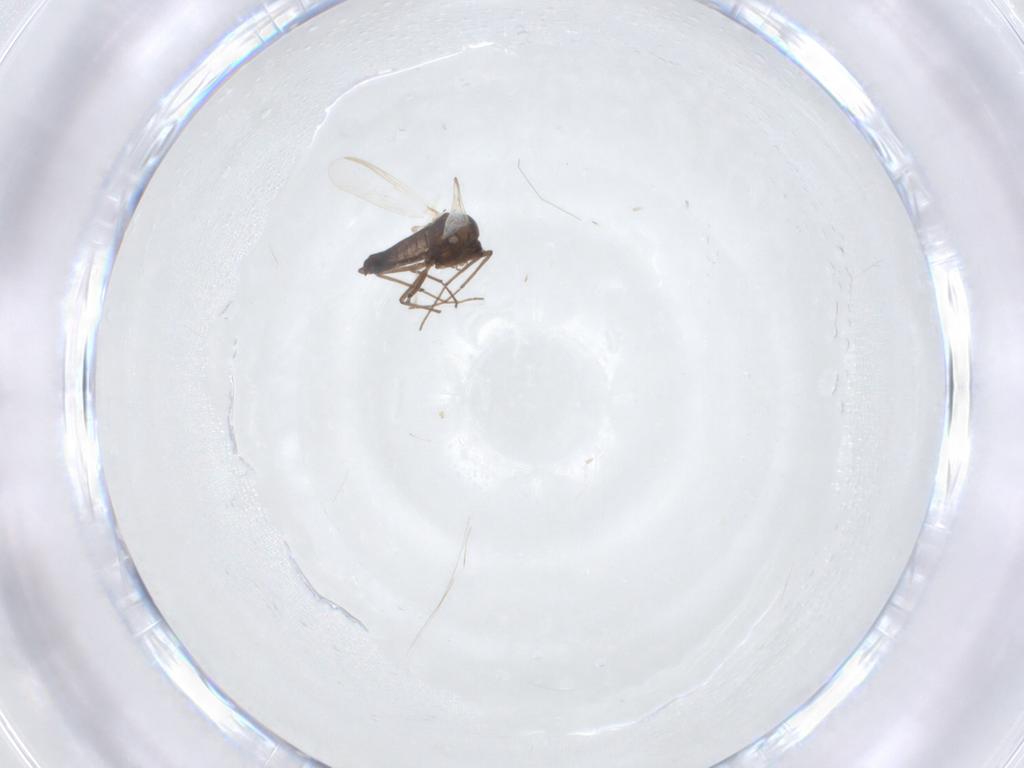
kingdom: Animalia
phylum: Arthropoda
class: Insecta
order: Diptera
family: Chironomidae
